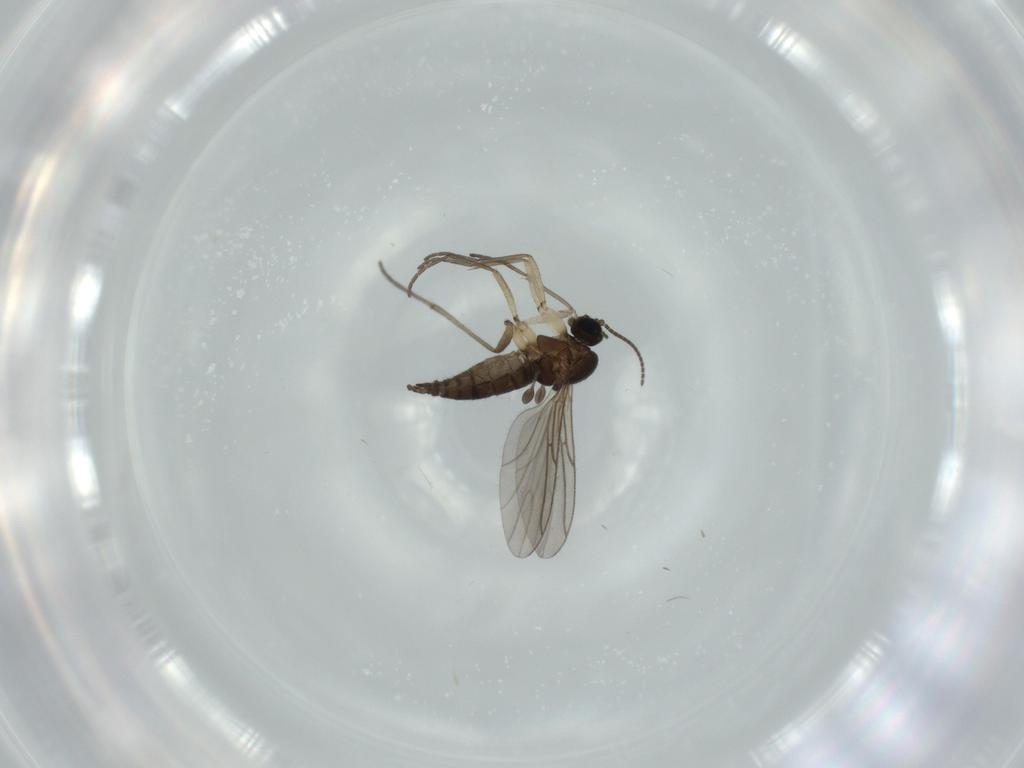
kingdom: Animalia
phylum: Arthropoda
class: Insecta
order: Diptera
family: Sciaridae
